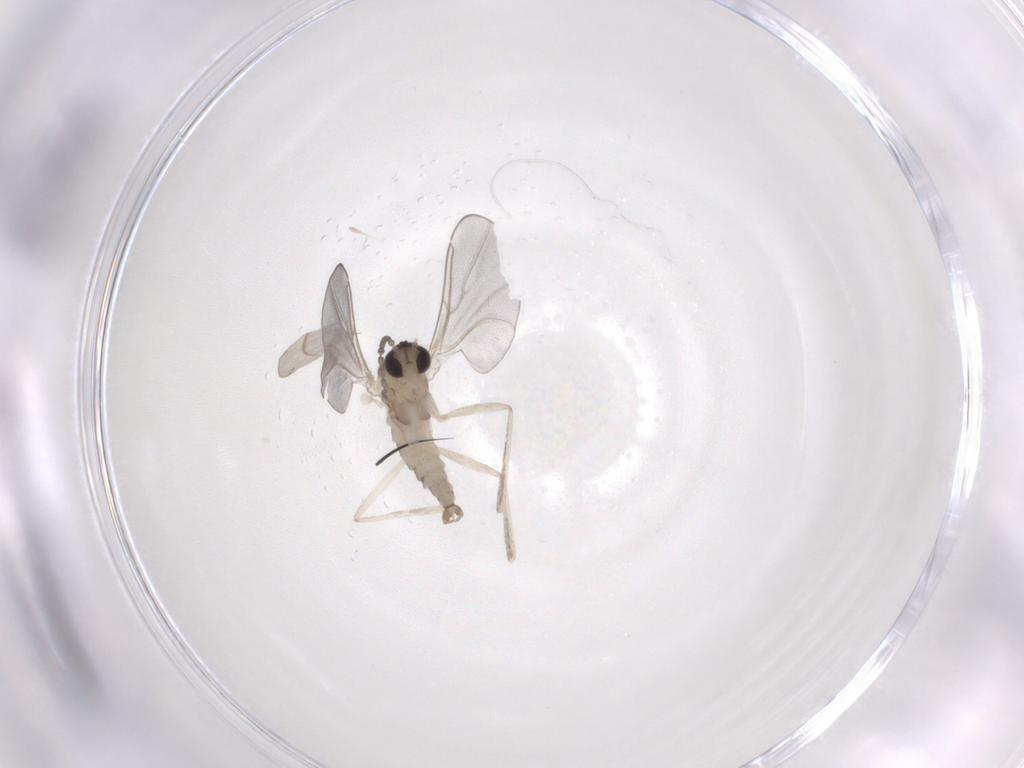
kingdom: Animalia
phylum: Arthropoda
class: Insecta
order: Diptera
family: Cecidomyiidae
